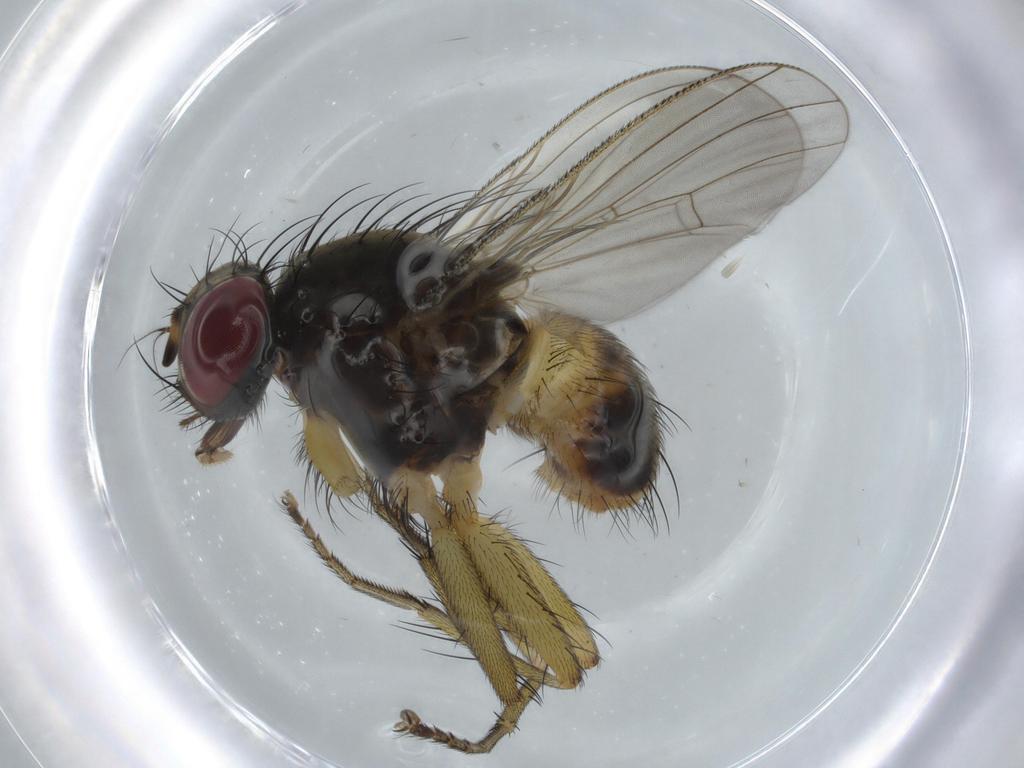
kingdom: Animalia
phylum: Arthropoda
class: Insecta
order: Diptera
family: Muscidae
